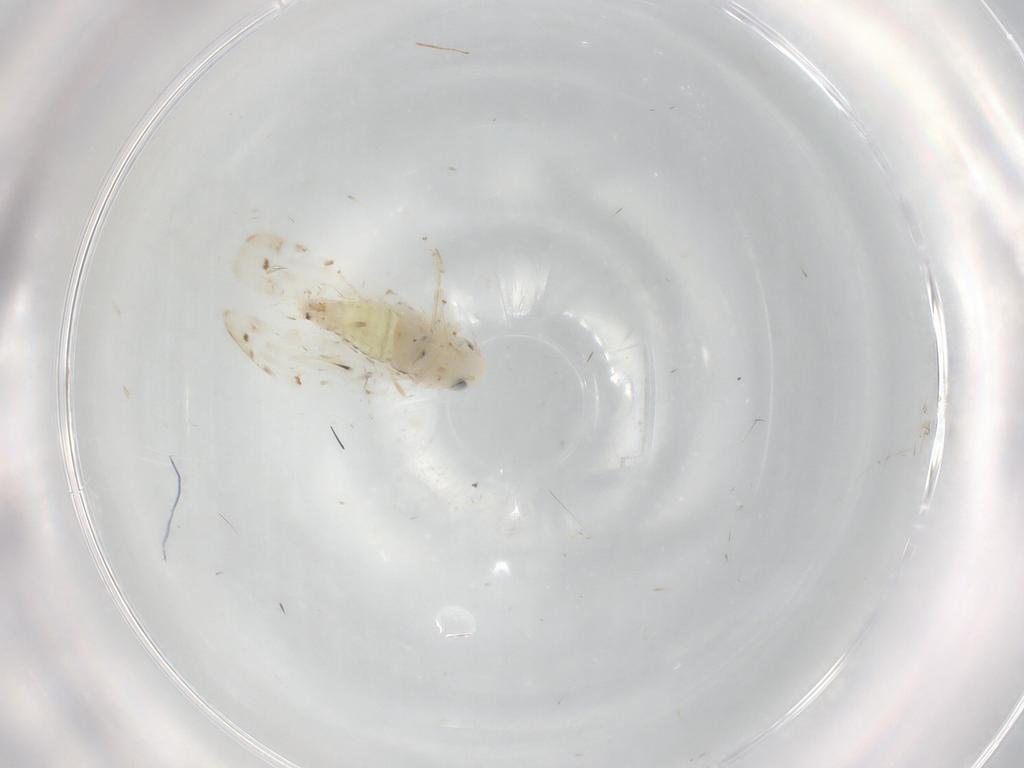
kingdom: Animalia
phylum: Arthropoda
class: Insecta
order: Hemiptera
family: Cicadellidae
